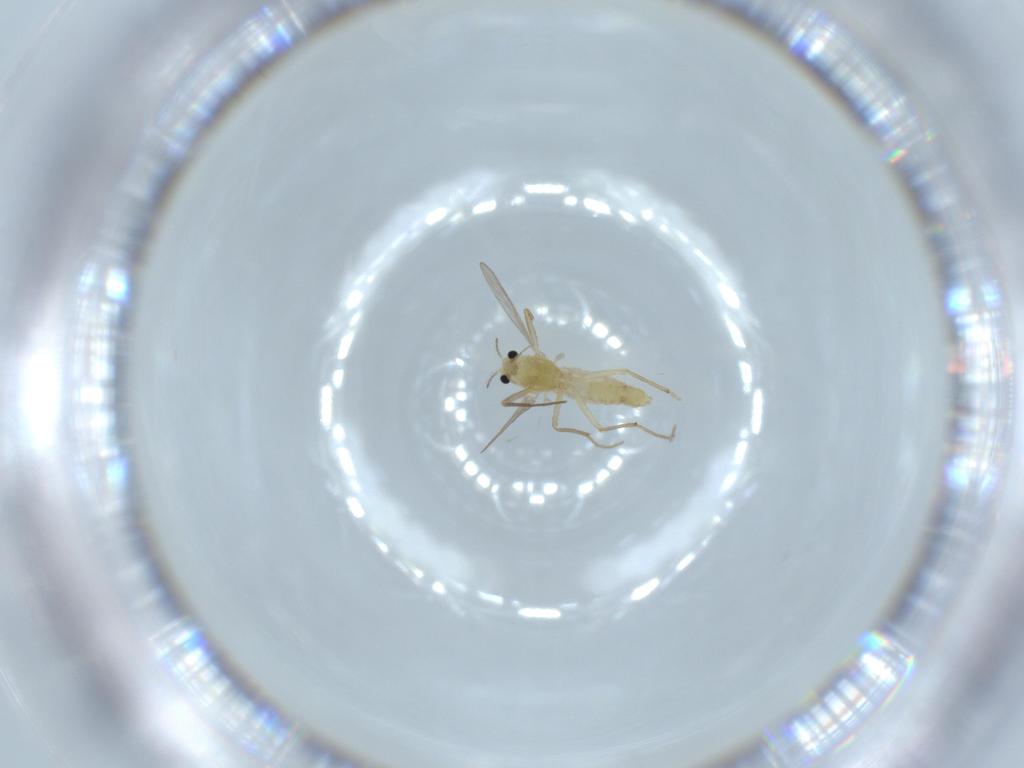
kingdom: Animalia
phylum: Arthropoda
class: Insecta
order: Diptera
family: Chironomidae
